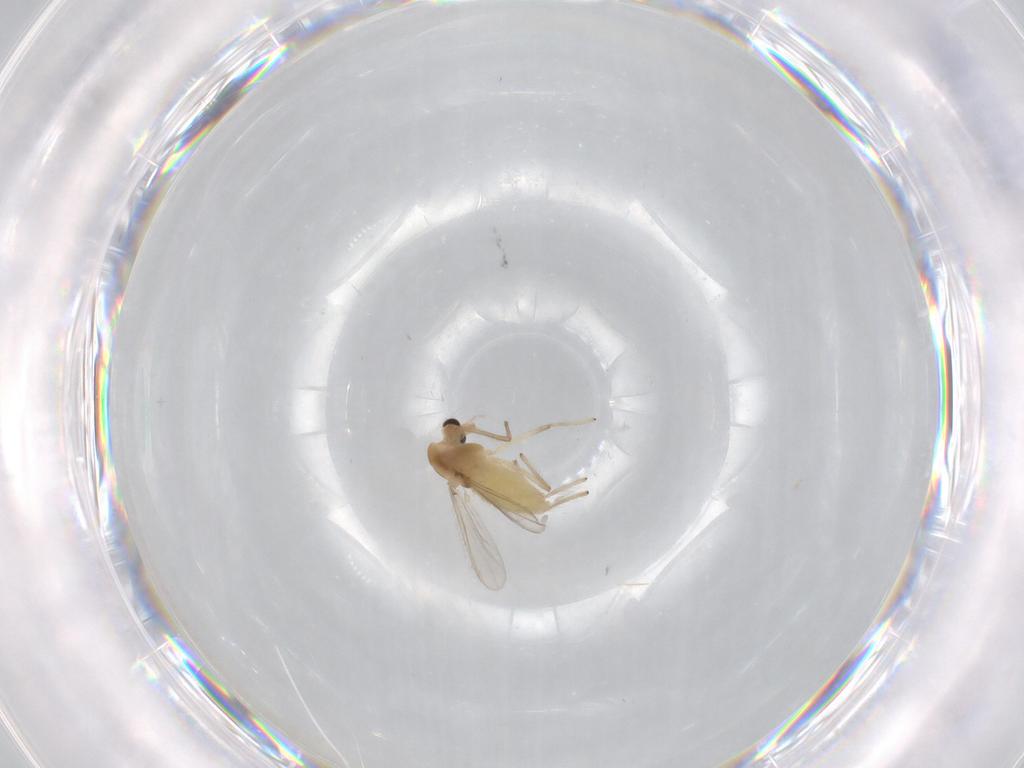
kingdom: Animalia
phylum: Arthropoda
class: Insecta
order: Diptera
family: Chironomidae
